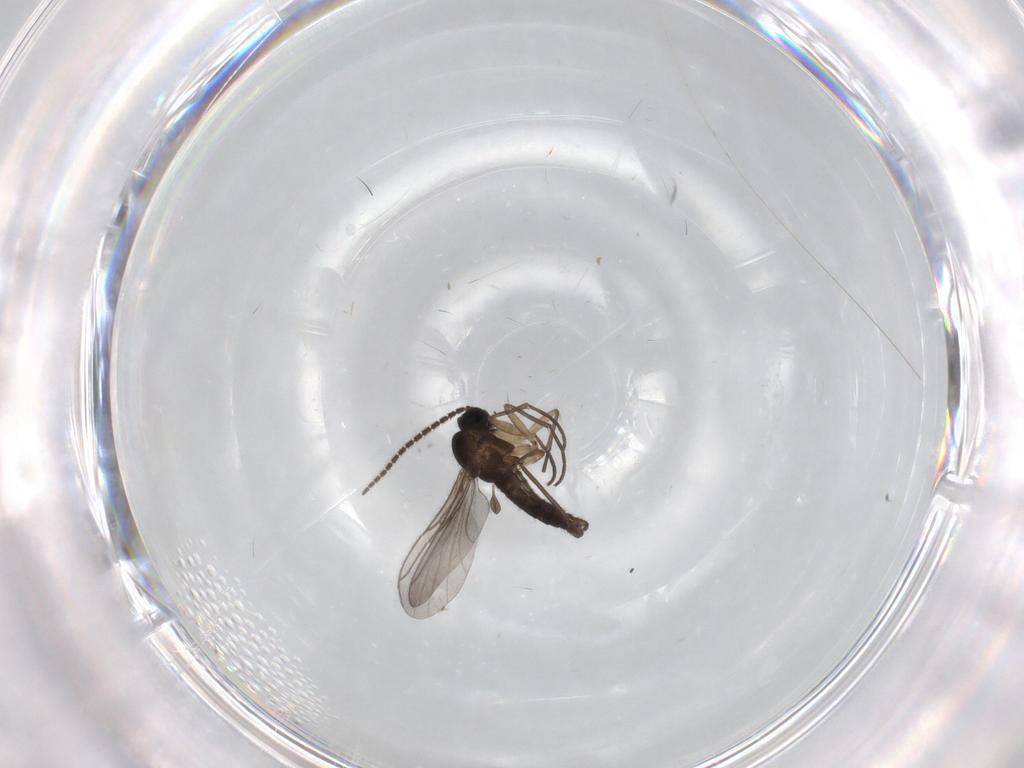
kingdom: Animalia
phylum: Arthropoda
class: Insecta
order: Diptera
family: Sciaridae
